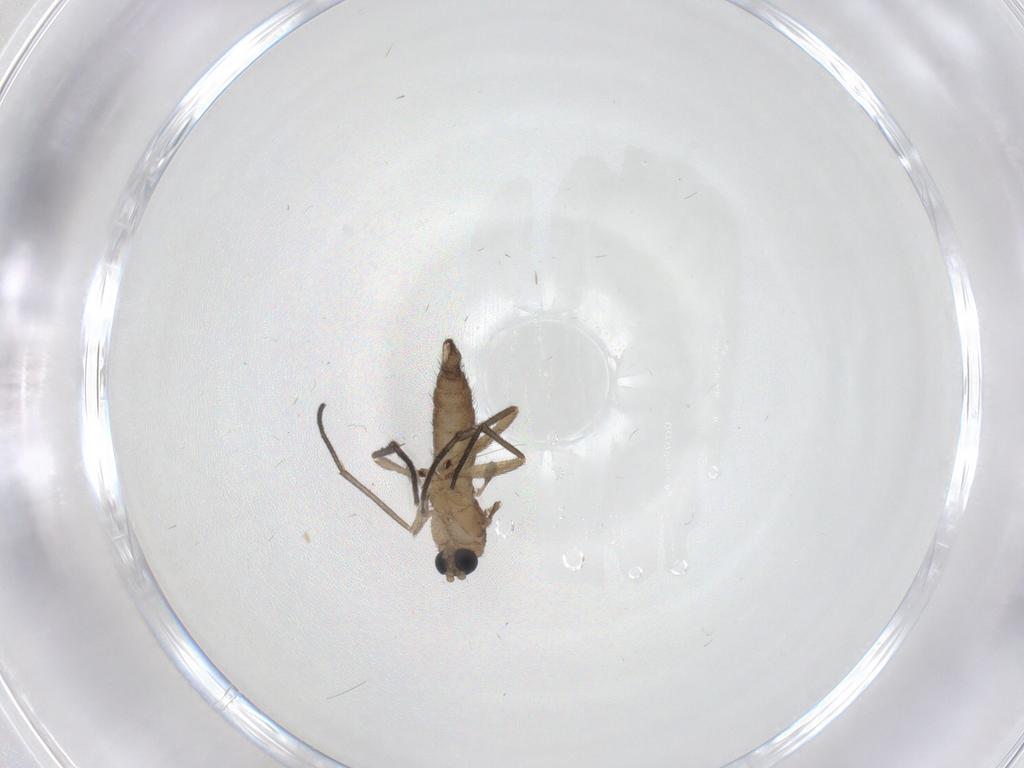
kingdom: Animalia
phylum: Arthropoda
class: Insecta
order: Diptera
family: Sciaridae
